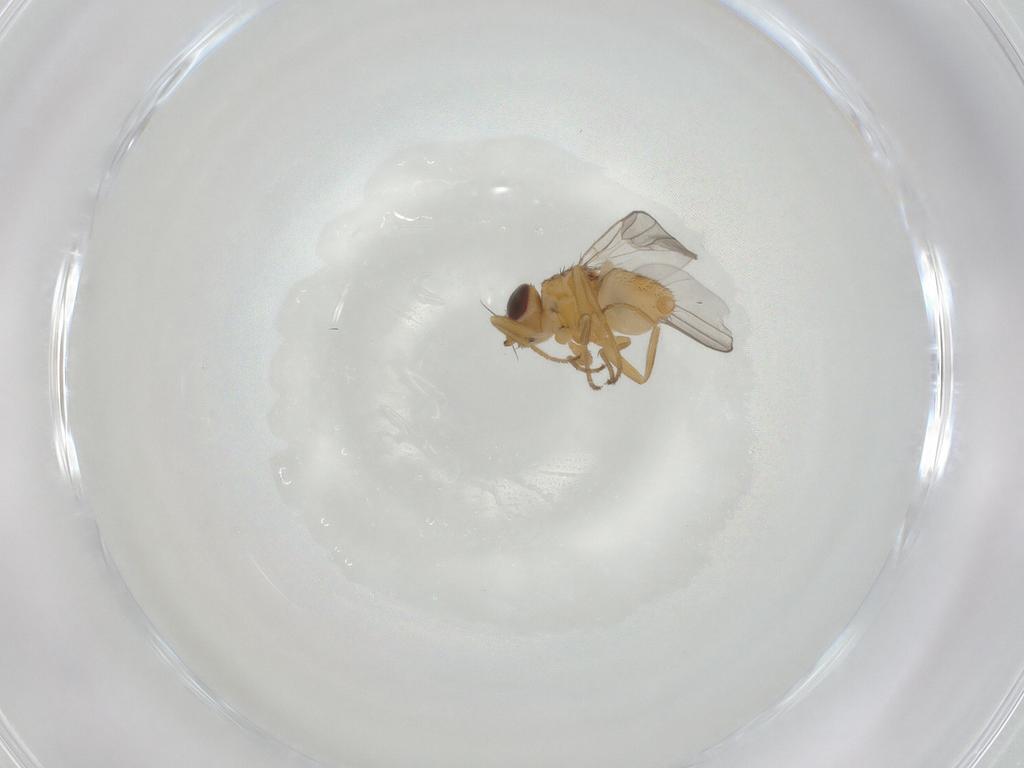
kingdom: Animalia
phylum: Arthropoda
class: Insecta
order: Diptera
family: Chloropidae
